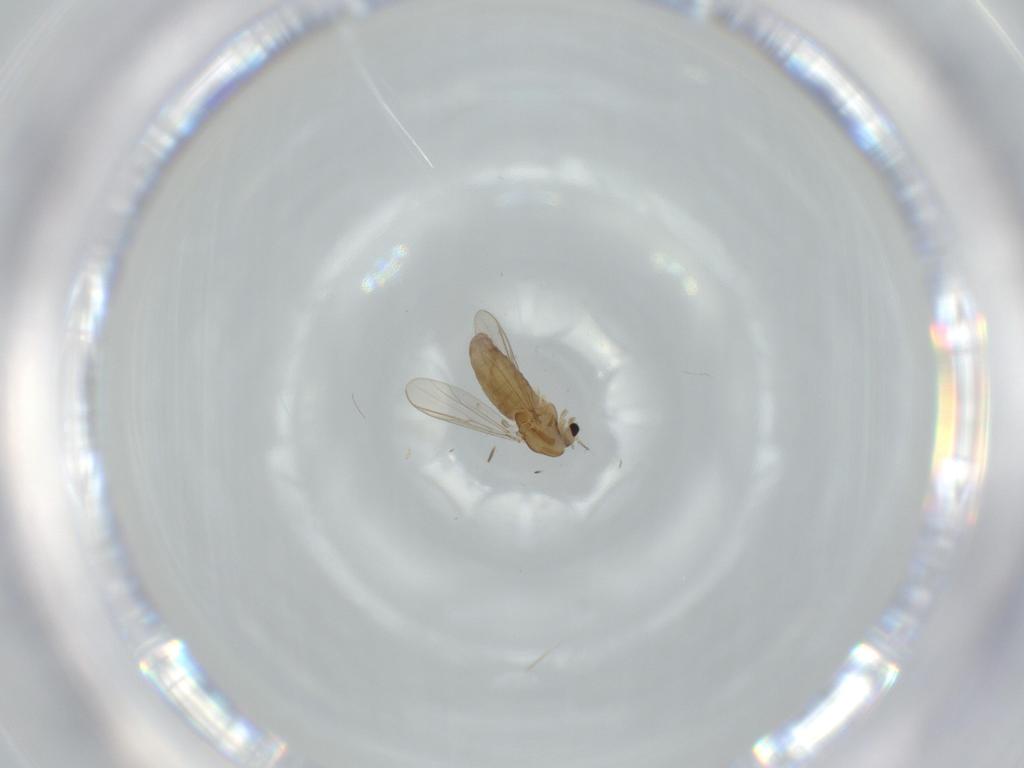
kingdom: Animalia
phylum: Arthropoda
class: Insecta
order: Diptera
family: Chironomidae
